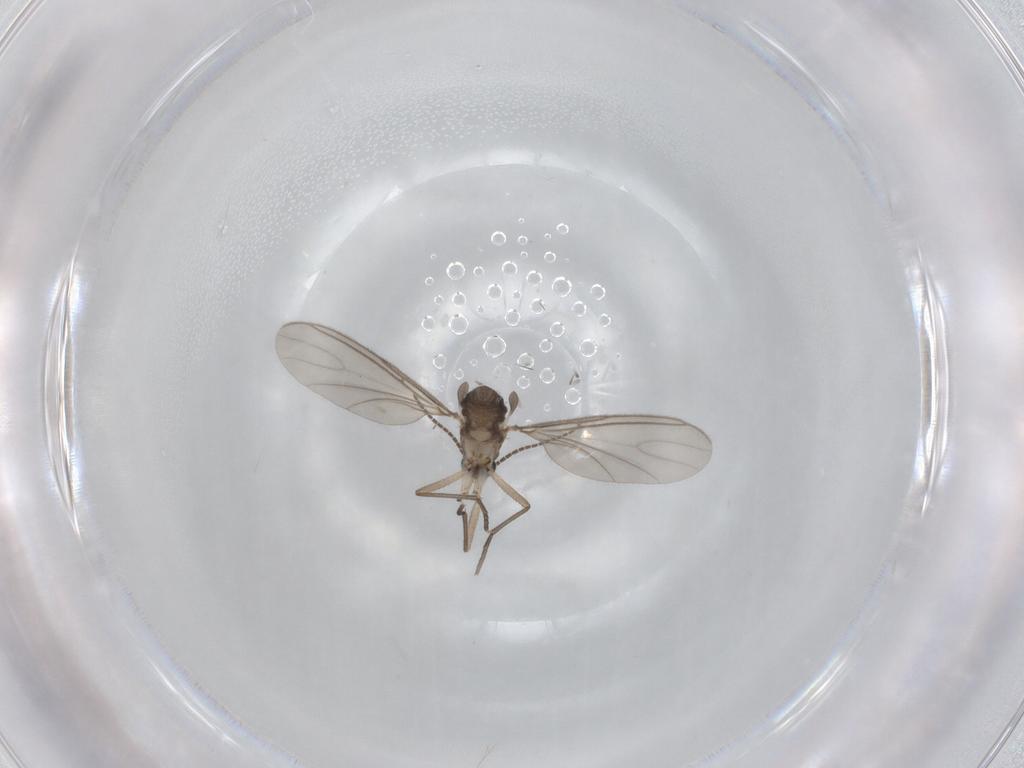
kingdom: Animalia
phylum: Arthropoda
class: Insecta
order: Diptera
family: Sciaridae
